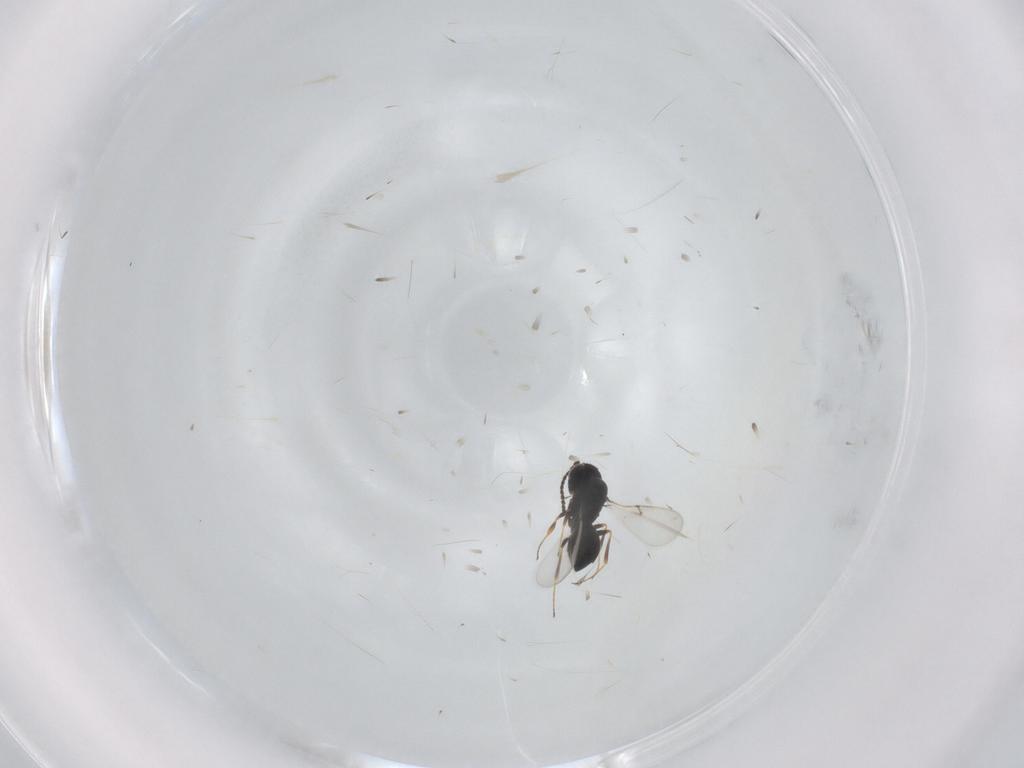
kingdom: Animalia
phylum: Arthropoda
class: Insecta
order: Hymenoptera
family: Scelionidae
